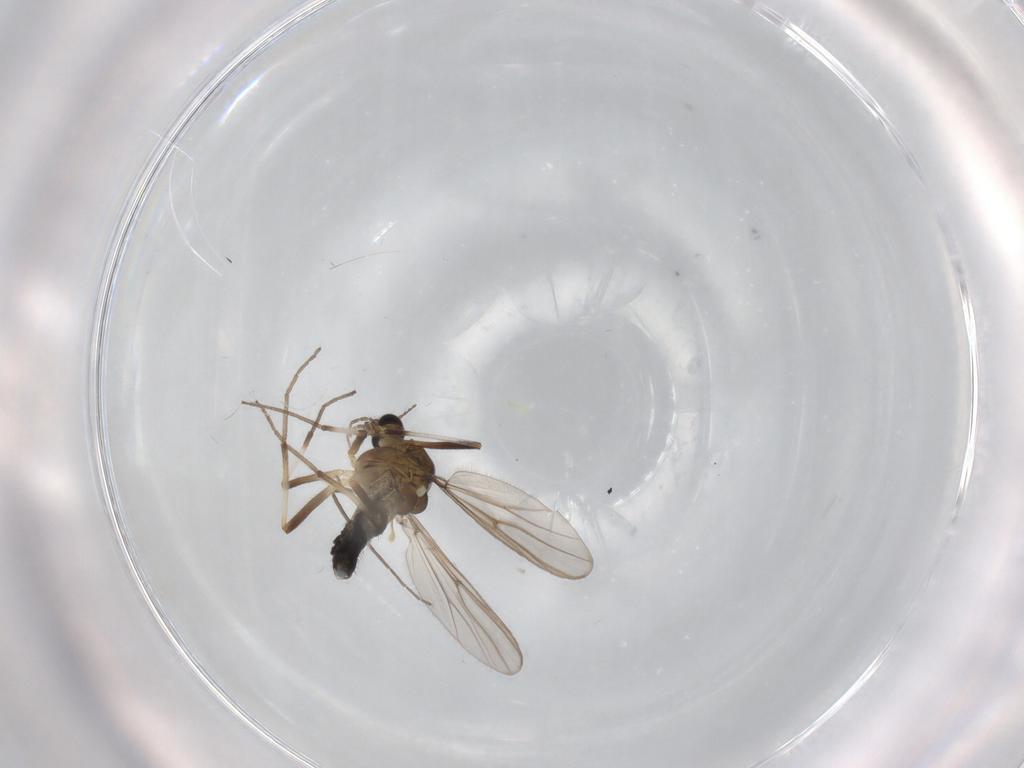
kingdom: Animalia
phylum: Arthropoda
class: Insecta
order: Diptera
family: Chironomidae
